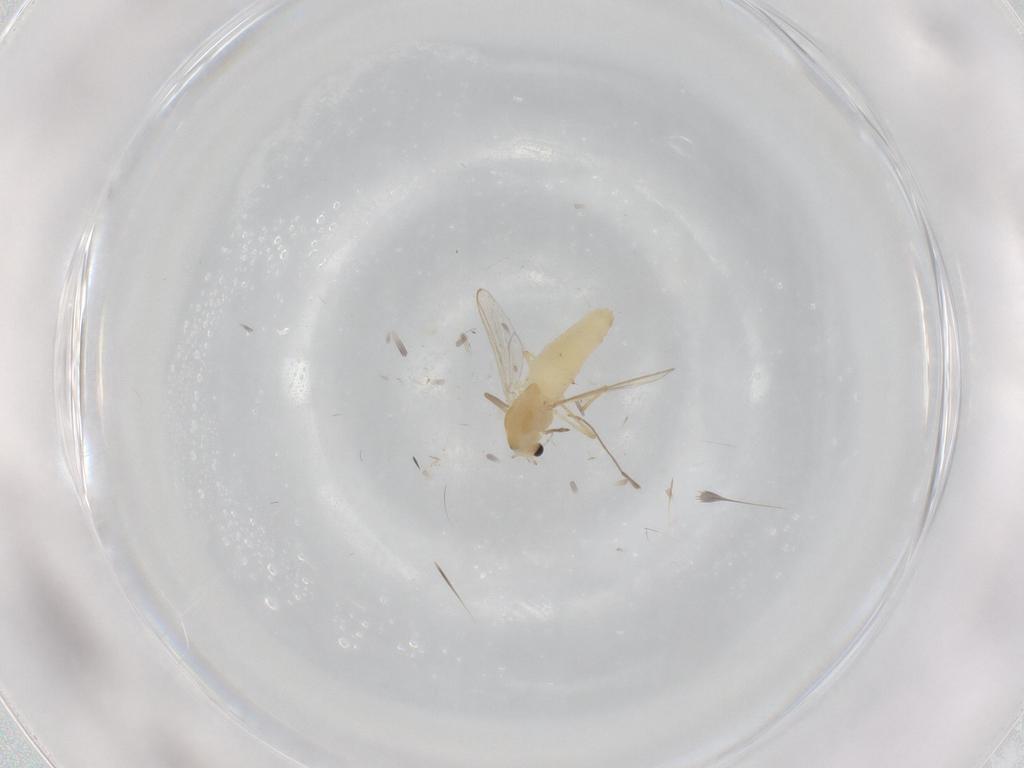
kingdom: Animalia
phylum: Arthropoda
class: Insecta
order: Diptera
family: Chironomidae
